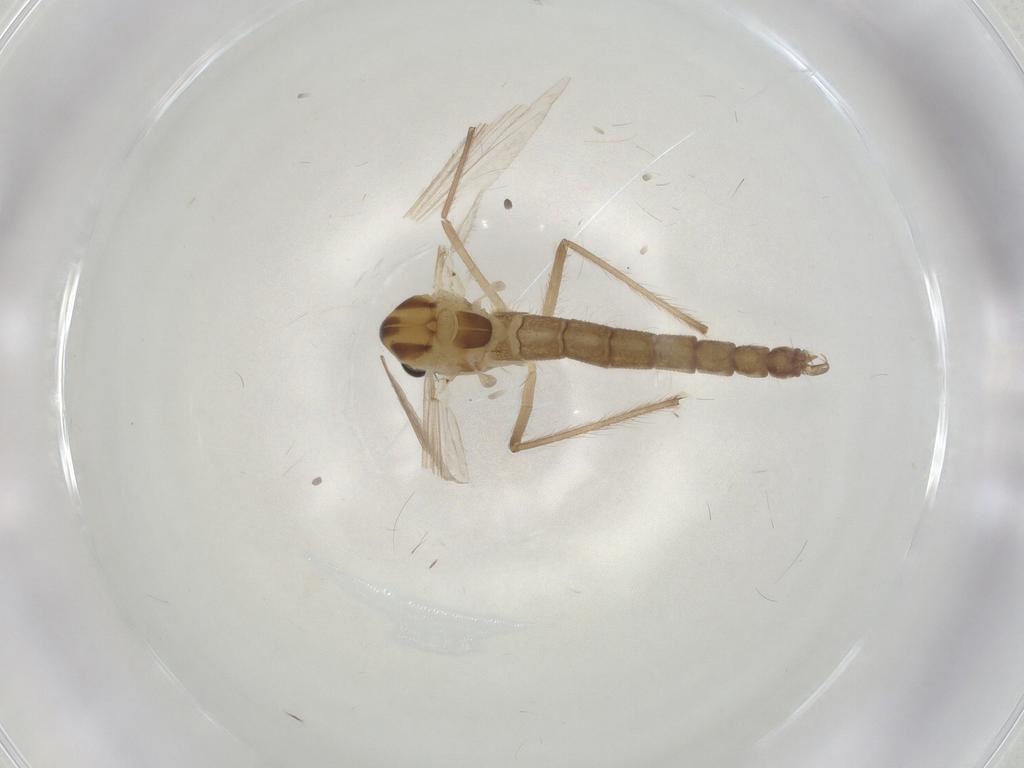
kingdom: Animalia
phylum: Arthropoda
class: Insecta
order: Diptera
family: Chironomidae
